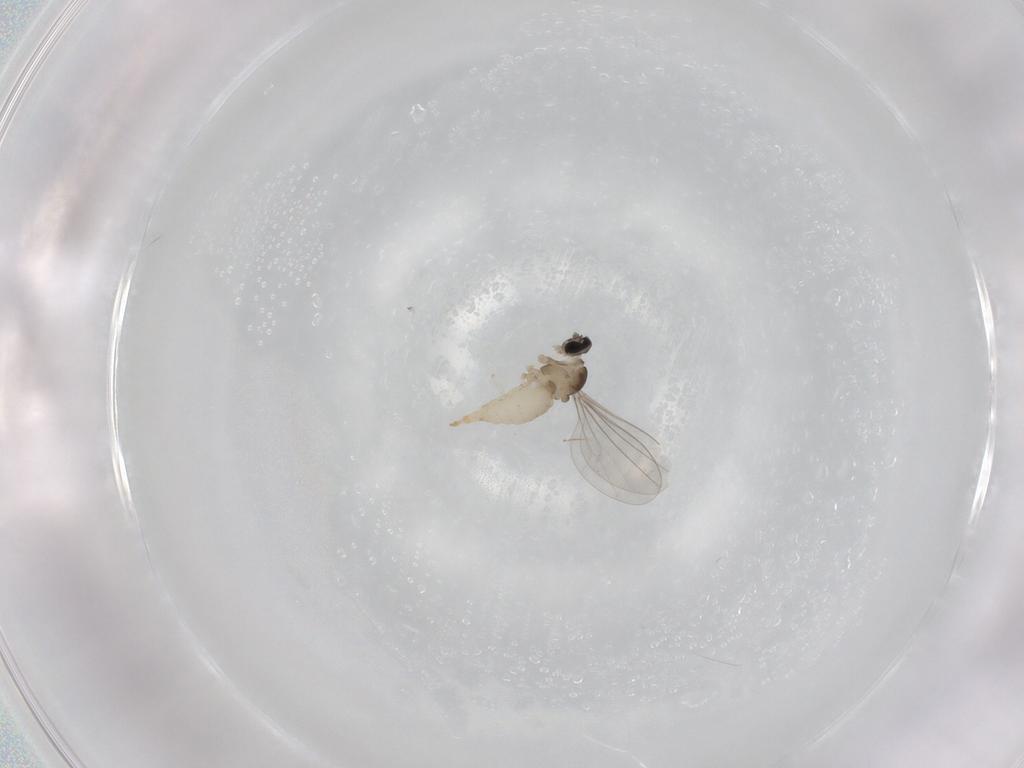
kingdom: Animalia
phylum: Arthropoda
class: Insecta
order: Diptera
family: Cecidomyiidae
